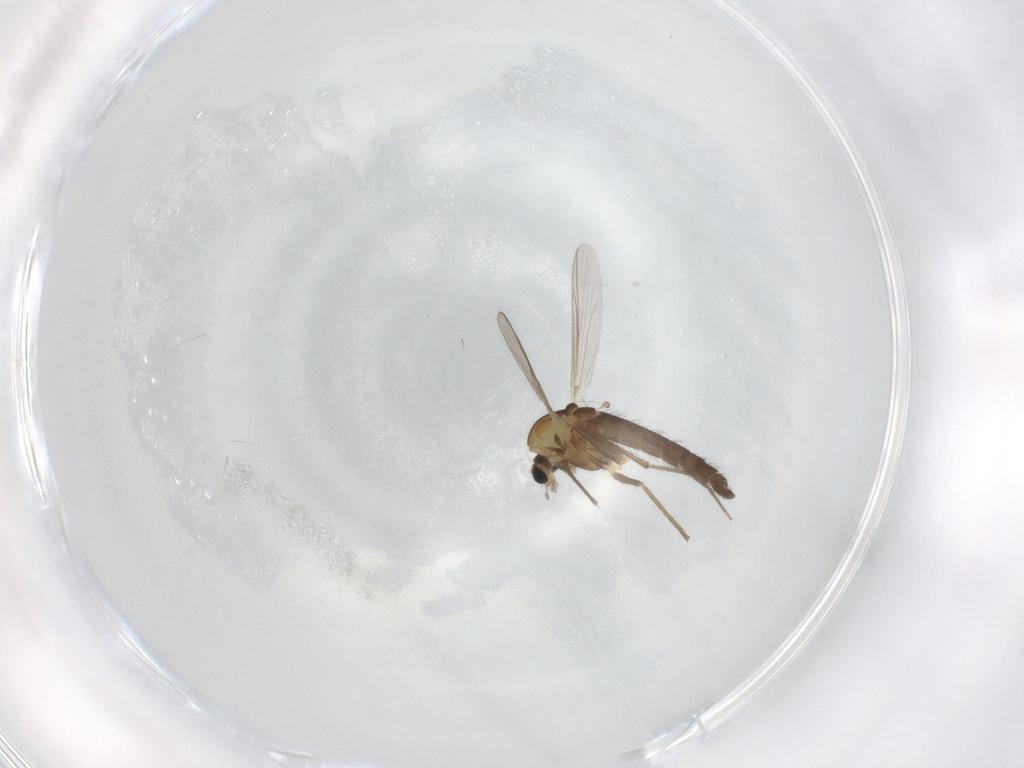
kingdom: Animalia
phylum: Arthropoda
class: Insecta
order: Diptera
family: Chironomidae
